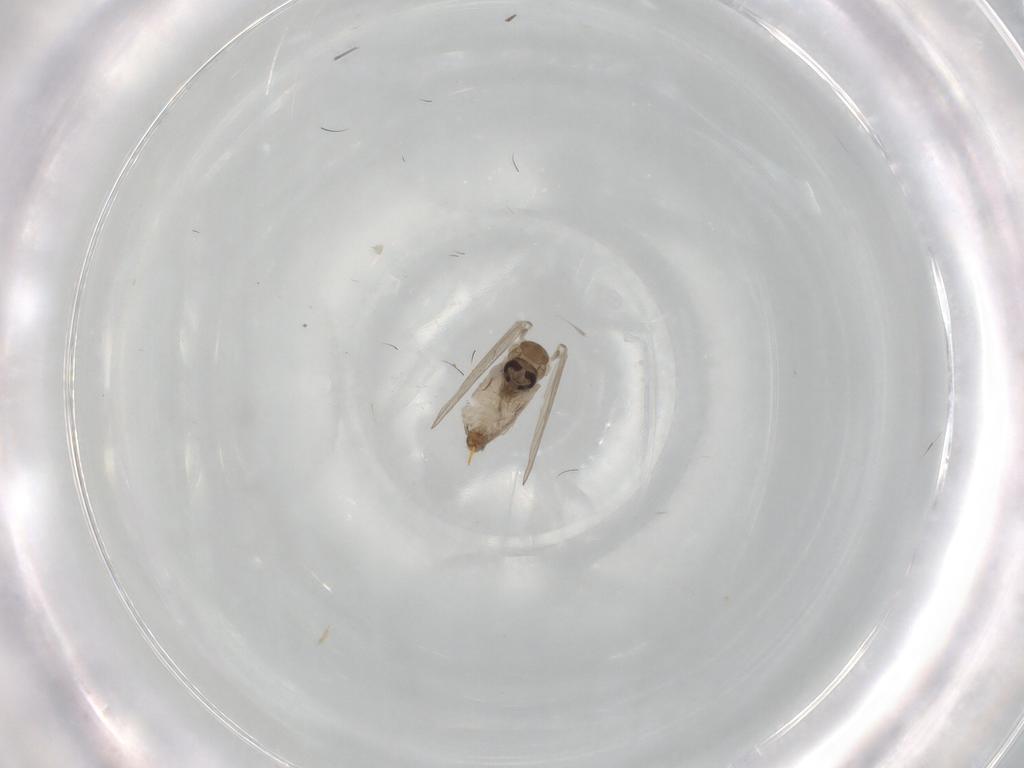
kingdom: Animalia
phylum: Arthropoda
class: Insecta
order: Diptera
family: Psychodidae
